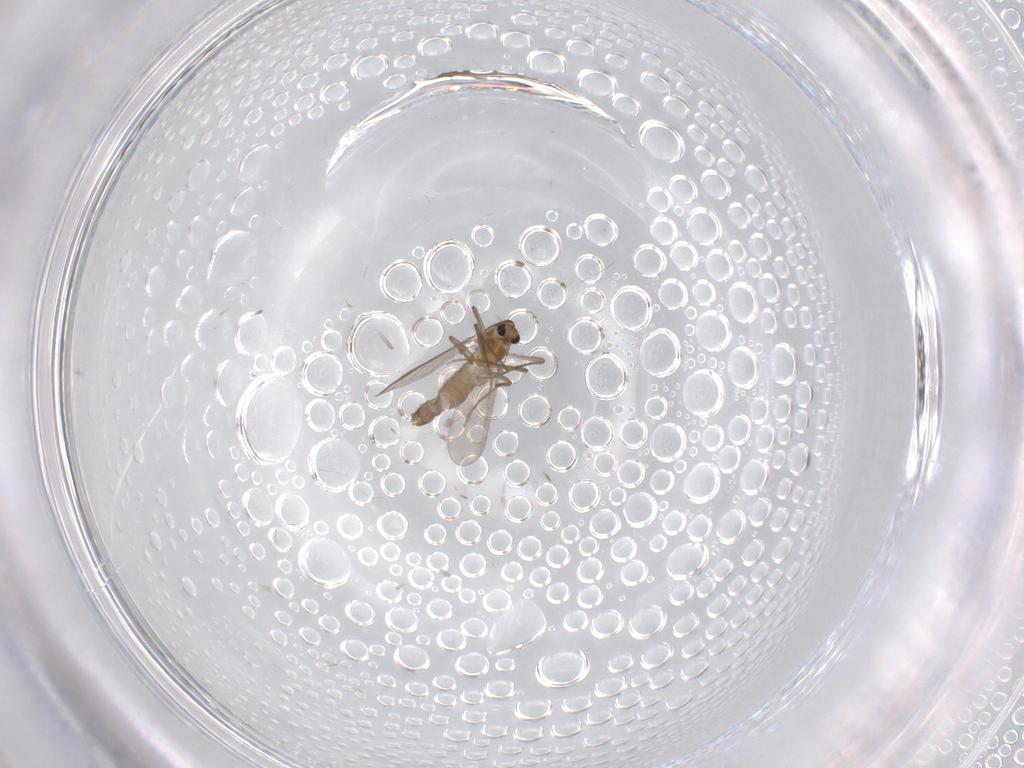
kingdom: Animalia
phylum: Arthropoda
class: Insecta
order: Diptera
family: Chironomidae
